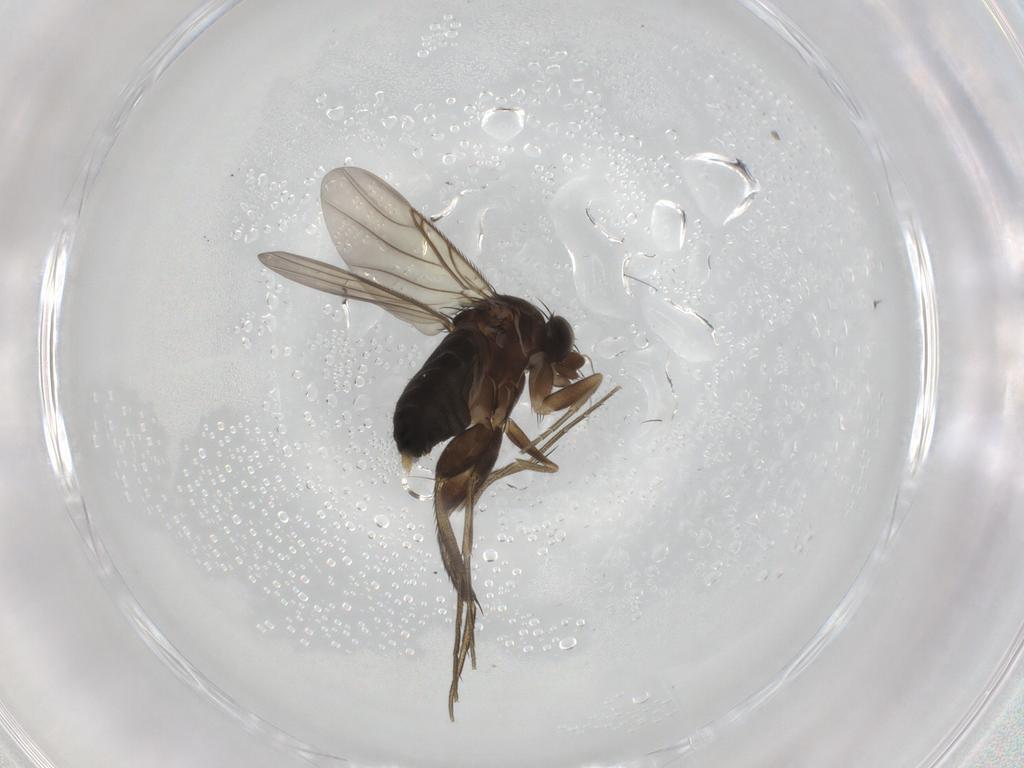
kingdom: Animalia
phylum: Arthropoda
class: Insecta
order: Diptera
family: Phoridae
